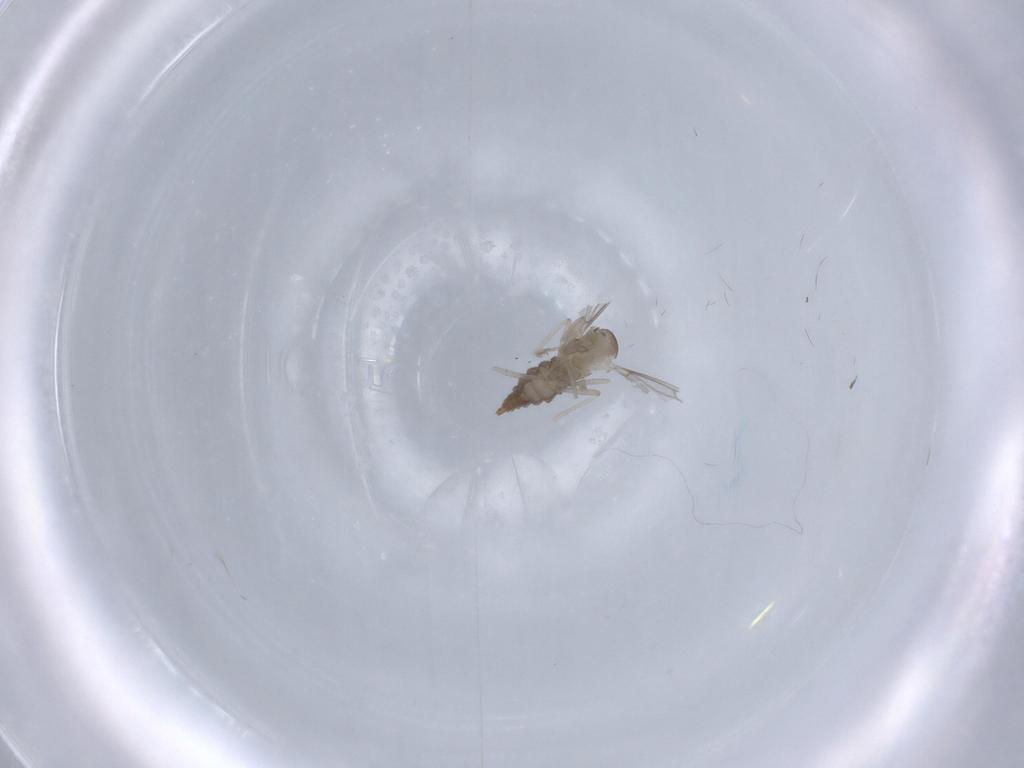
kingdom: Animalia
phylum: Arthropoda
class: Insecta
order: Diptera
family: Cecidomyiidae
